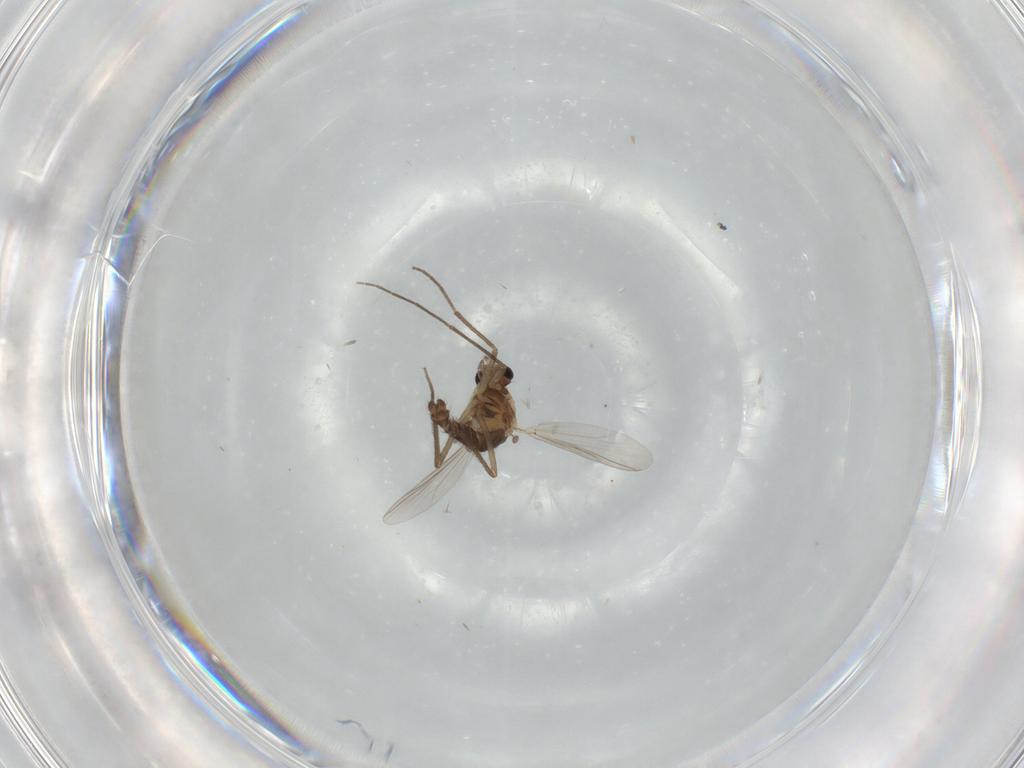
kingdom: Animalia
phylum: Arthropoda
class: Insecta
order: Diptera
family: Chironomidae
